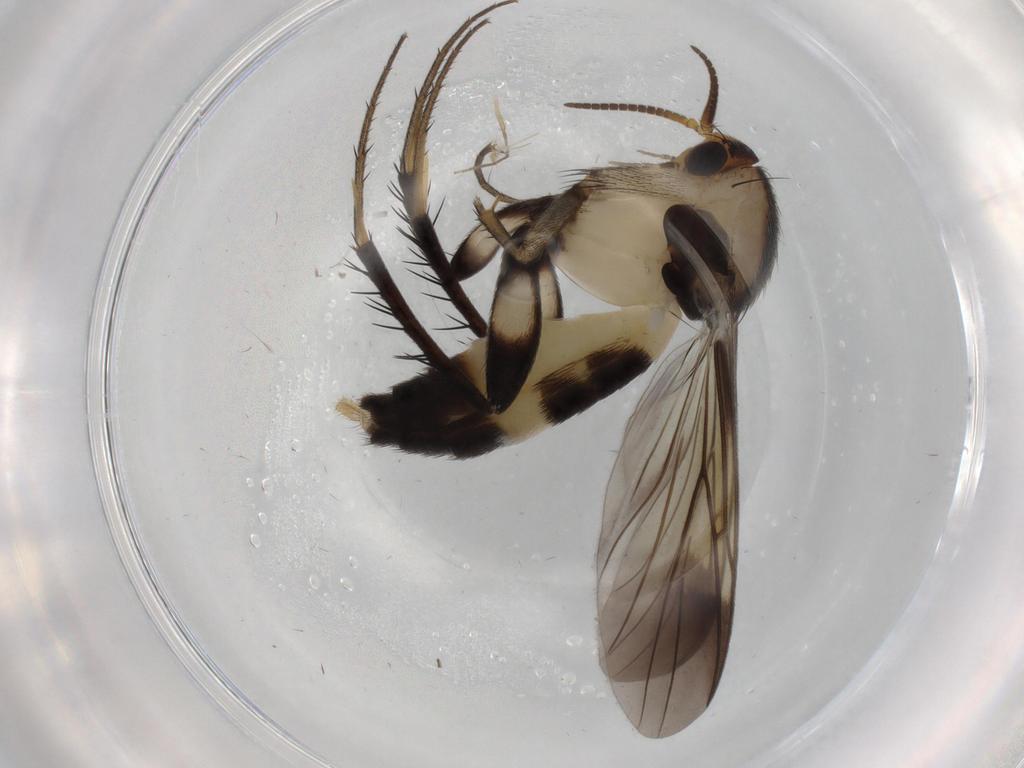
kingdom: Animalia
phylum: Arthropoda
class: Insecta
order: Diptera
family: Mycetophilidae
